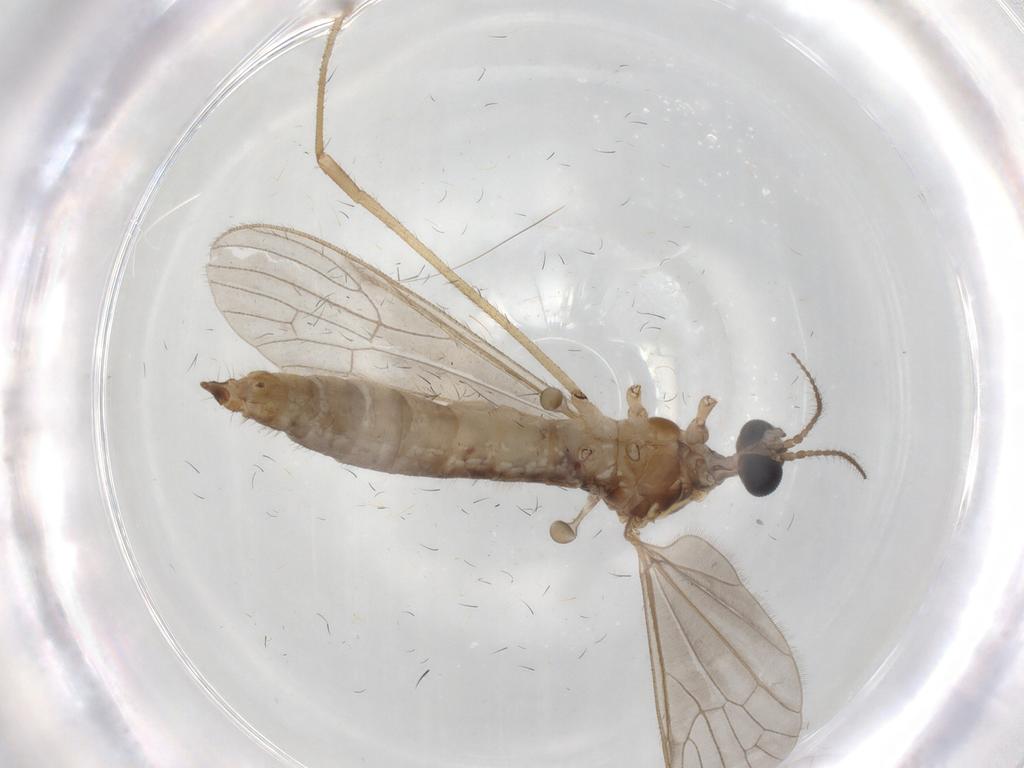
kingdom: Animalia
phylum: Arthropoda
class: Insecta
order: Diptera
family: Limoniidae
